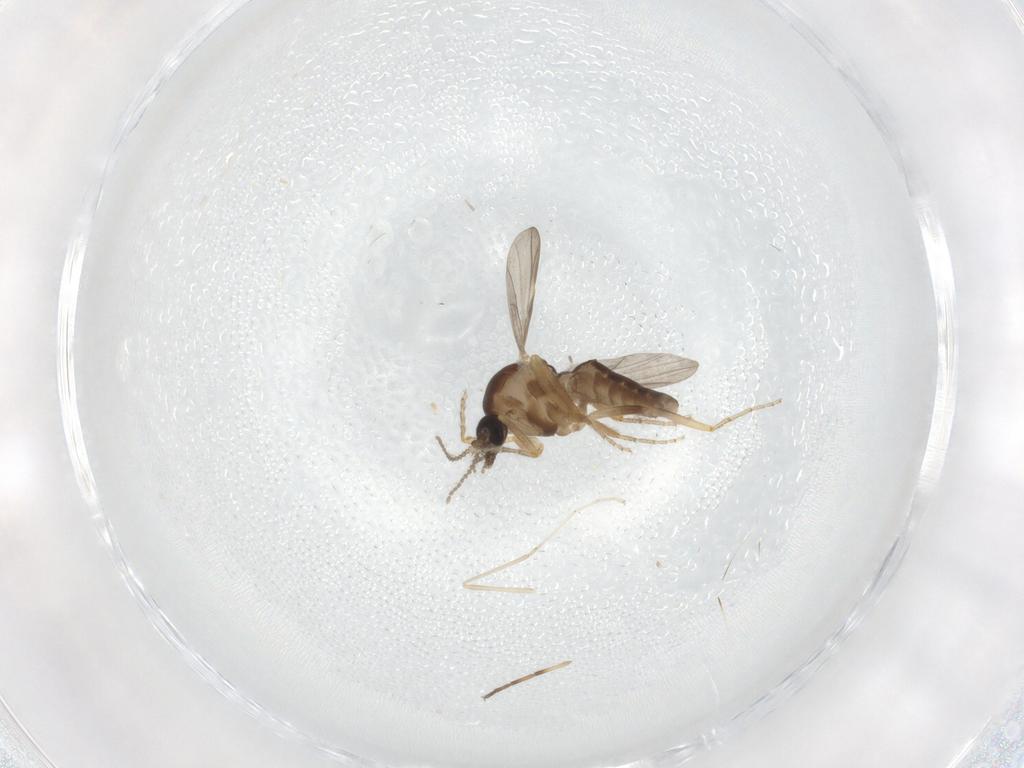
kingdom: Animalia
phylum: Arthropoda
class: Insecta
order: Diptera
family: Ceratopogonidae
